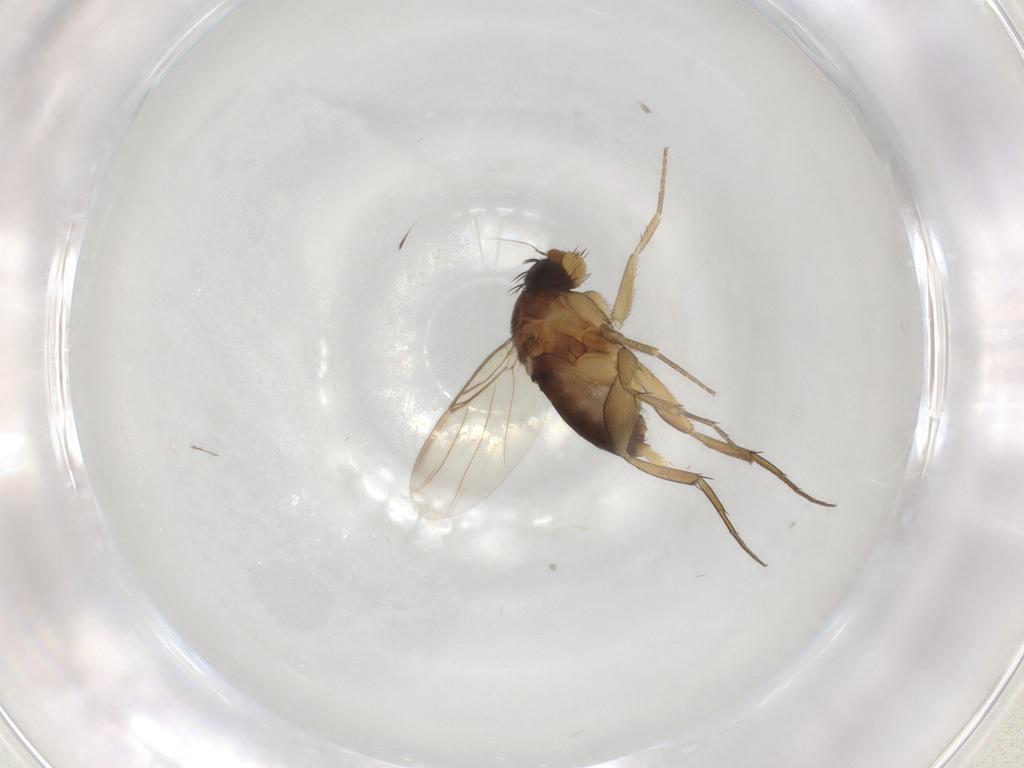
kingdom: Animalia
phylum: Arthropoda
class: Insecta
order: Diptera
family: Phoridae
